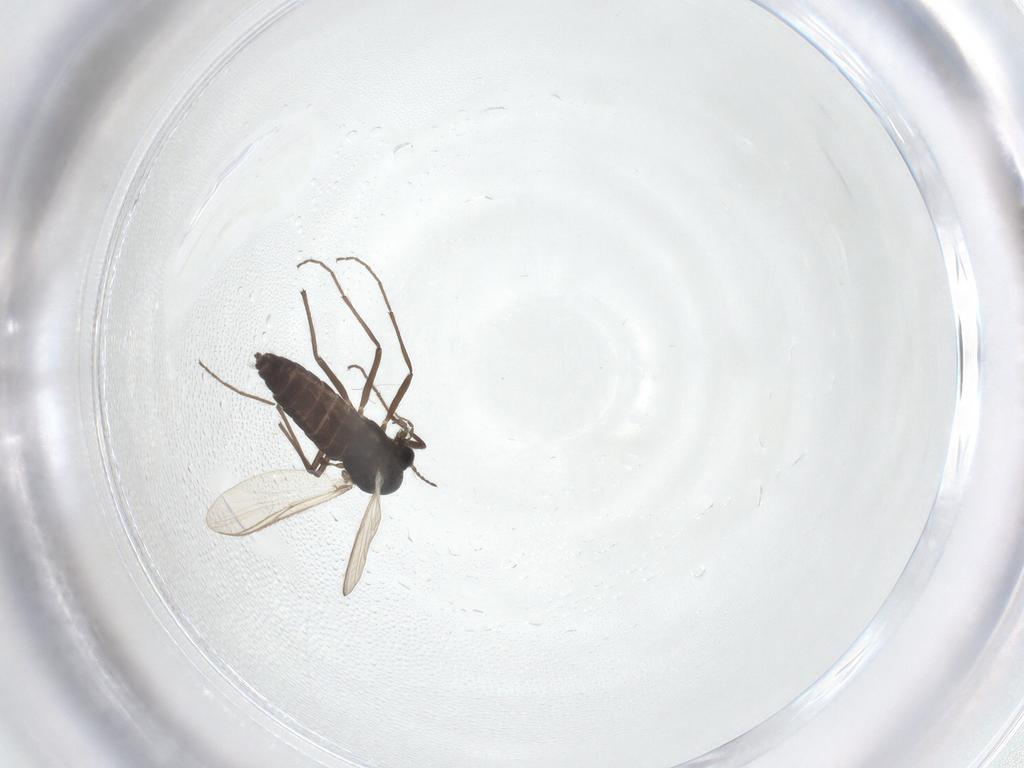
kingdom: Animalia
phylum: Arthropoda
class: Insecta
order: Diptera
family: Chironomidae
